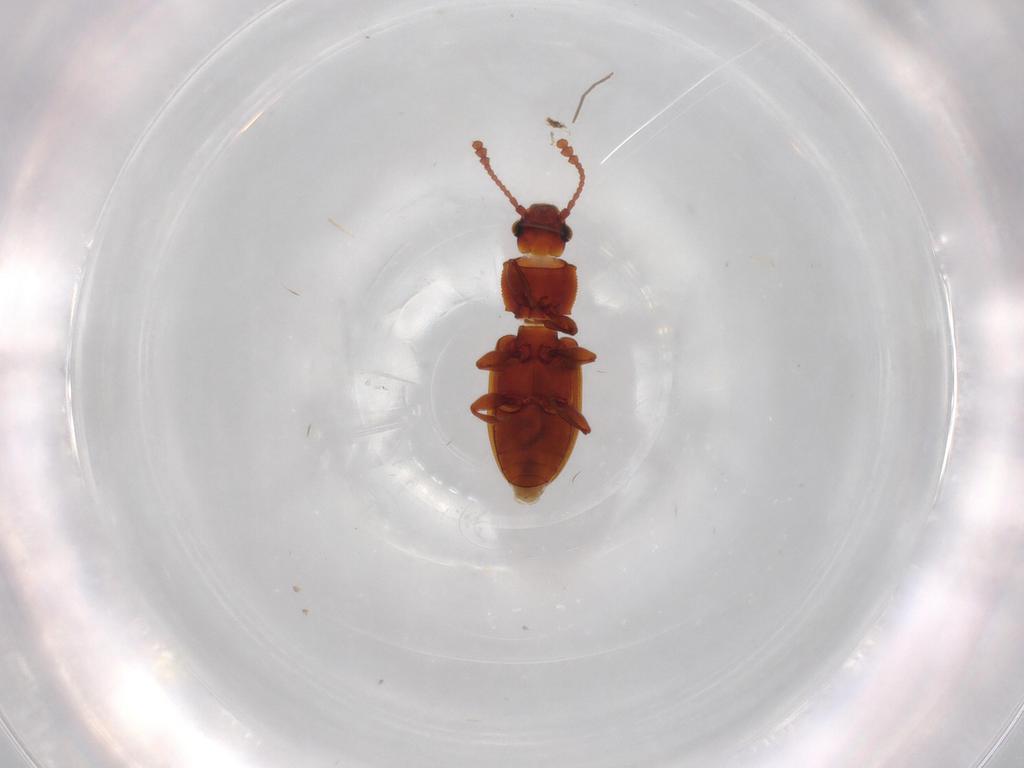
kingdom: Animalia
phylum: Arthropoda
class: Insecta
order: Coleoptera
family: Silvanidae
